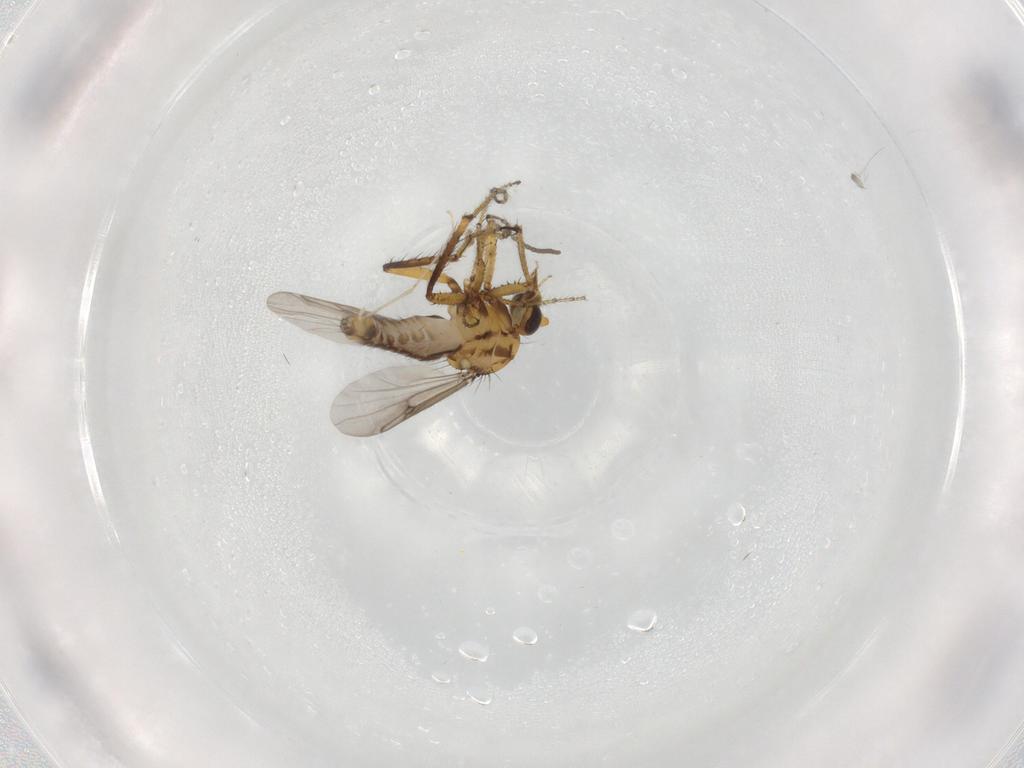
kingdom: Animalia
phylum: Arthropoda
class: Insecta
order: Diptera
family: Ceratopogonidae
